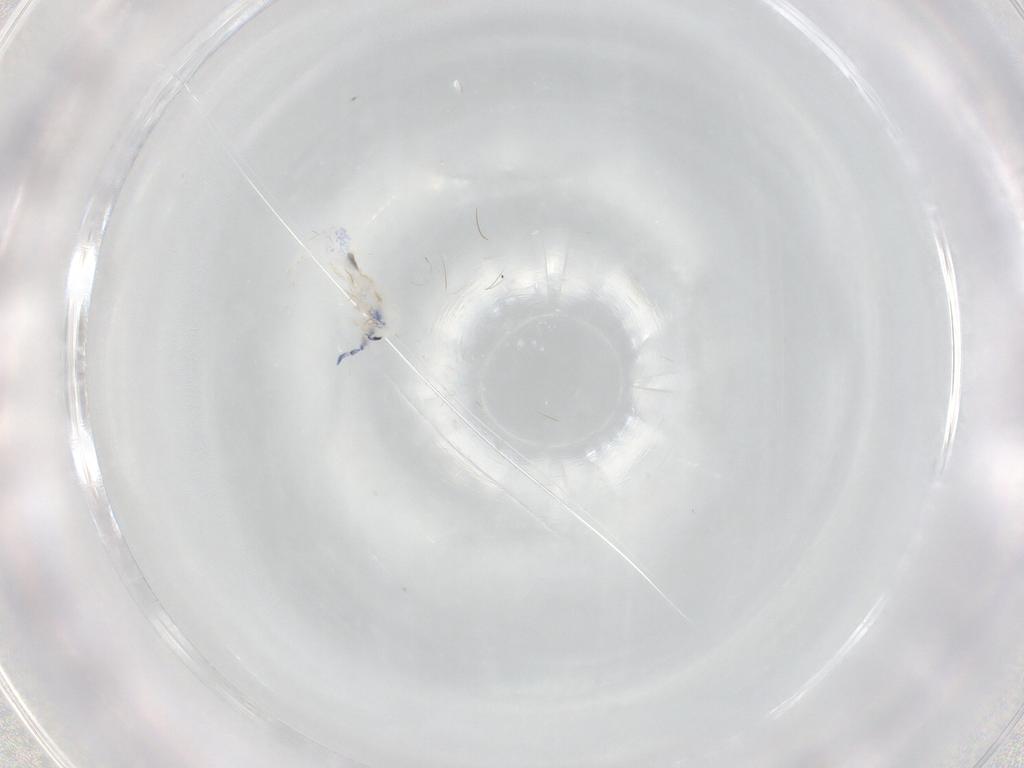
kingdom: Animalia
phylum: Arthropoda
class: Collembola
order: Entomobryomorpha
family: Entomobryidae
